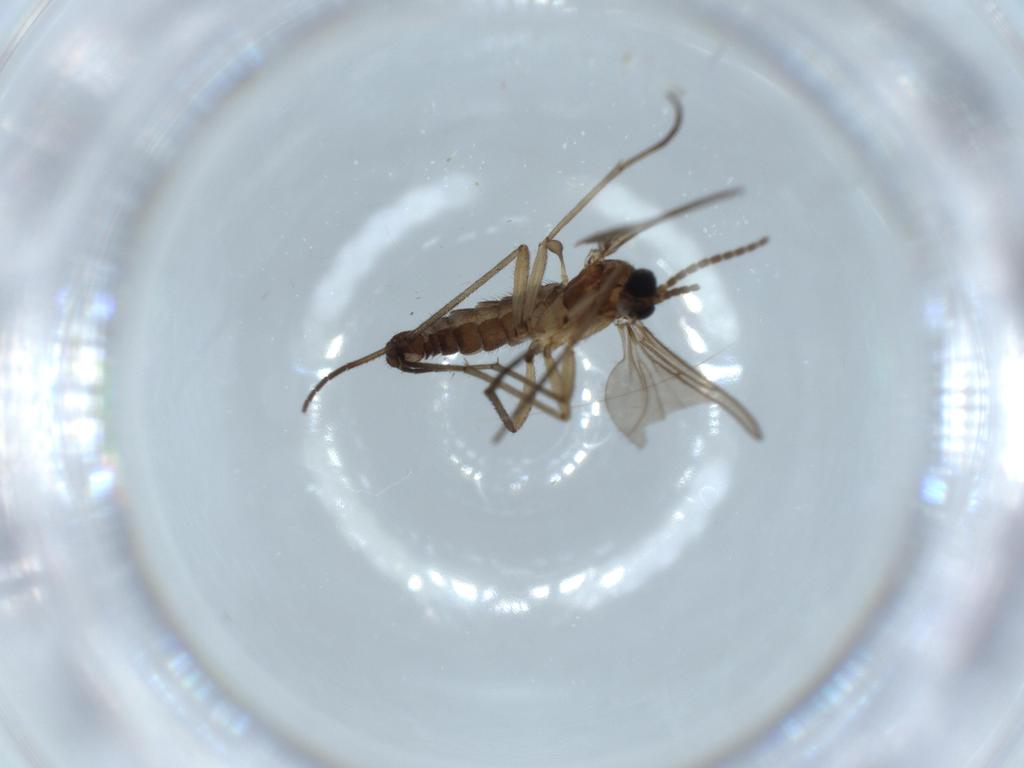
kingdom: Animalia
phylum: Arthropoda
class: Insecta
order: Diptera
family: Sciaridae
